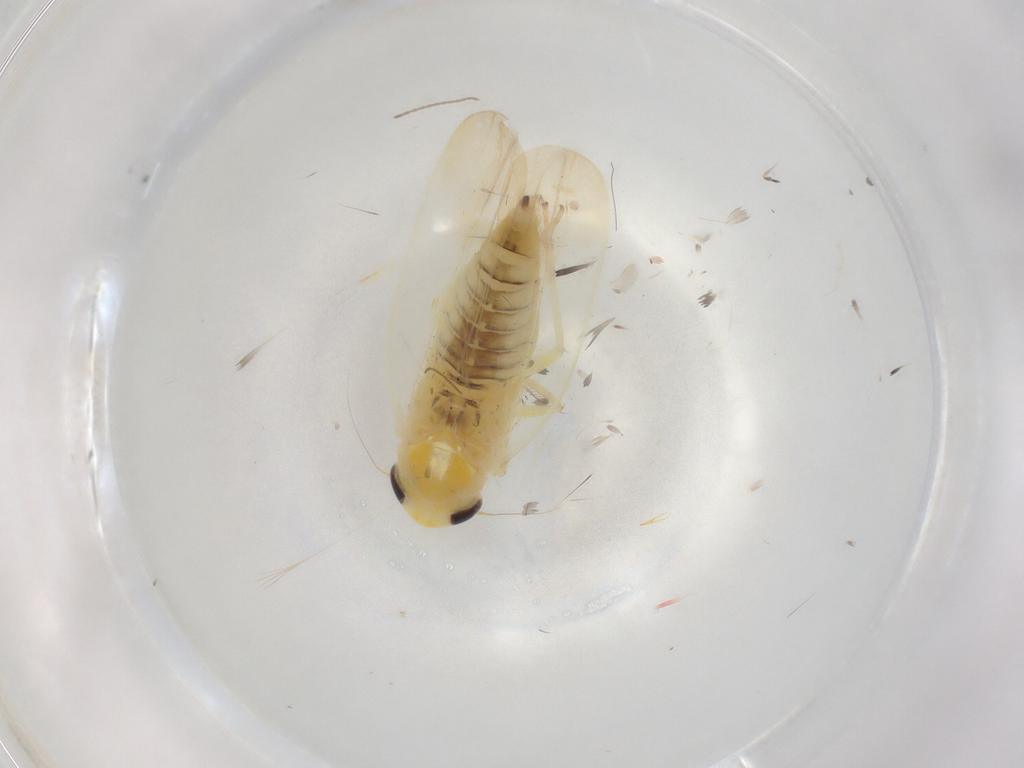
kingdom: Animalia
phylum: Arthropoda
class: Insecta
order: Hemiptera
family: Cicadellidae
